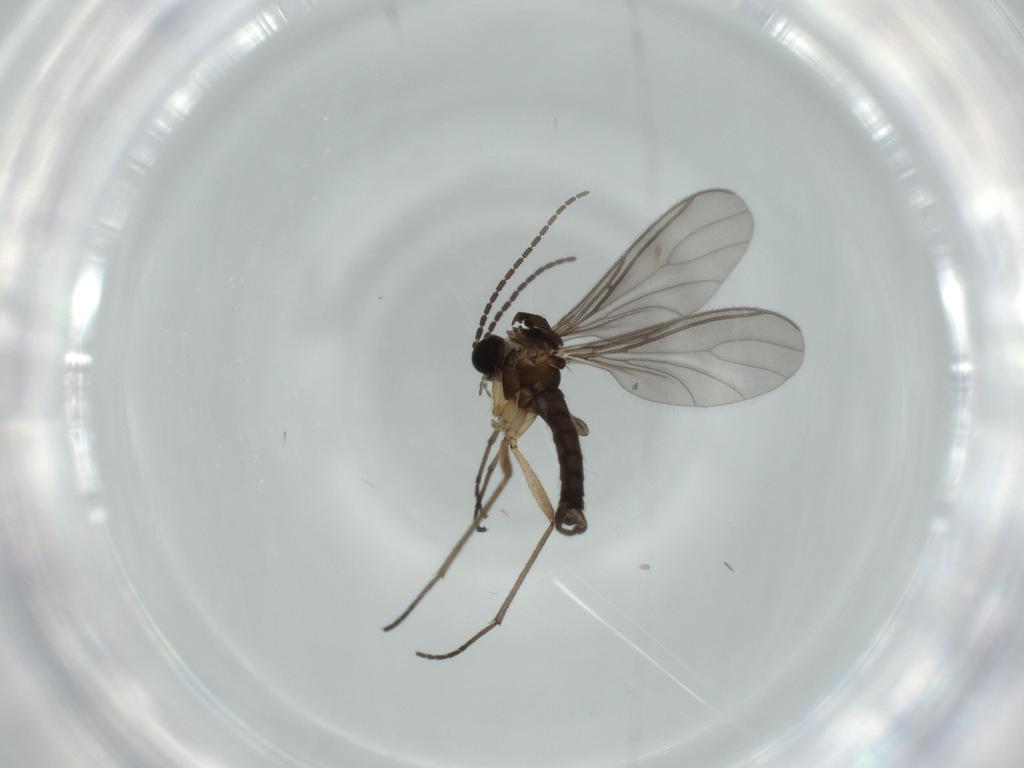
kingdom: Animalia
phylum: Arthropoda
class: Insecta
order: Diptera
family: Sciaridae
